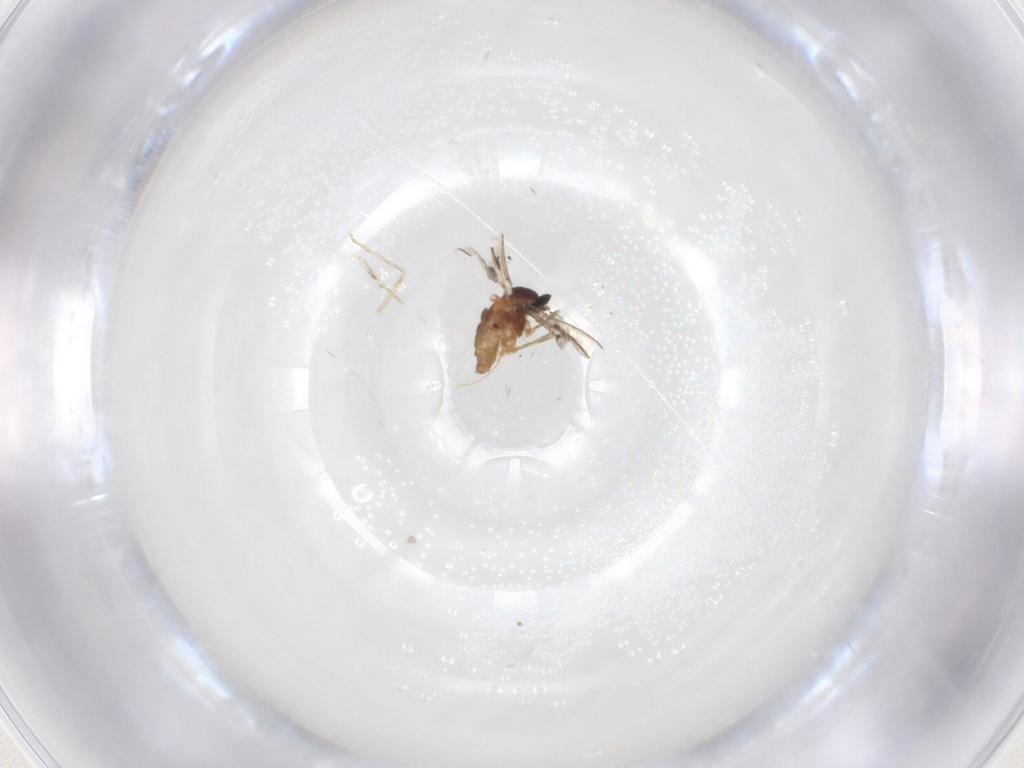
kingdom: Animalia
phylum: Arthropoda
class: Insecta
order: Diptera
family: Cecidomyiidae
